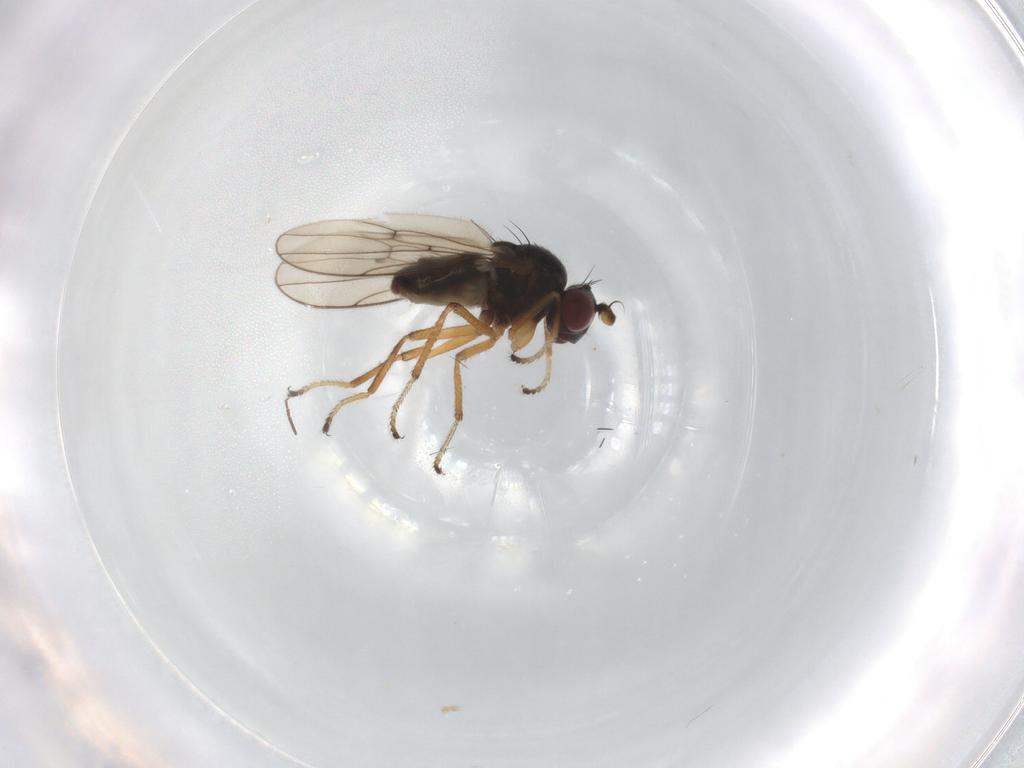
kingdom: Animalia
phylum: Arthropoda
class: Insecta
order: Diptera
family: Ephydridae
